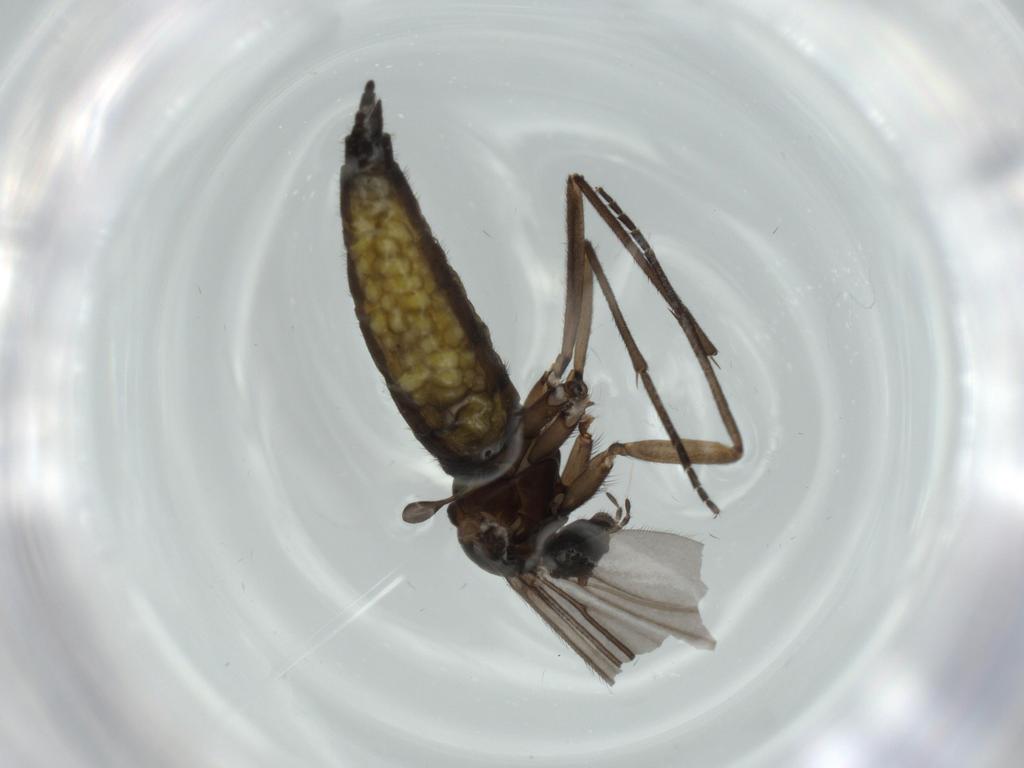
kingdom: Animalia
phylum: Arthropoda
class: Insecta
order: Diptera
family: Sciaridae
